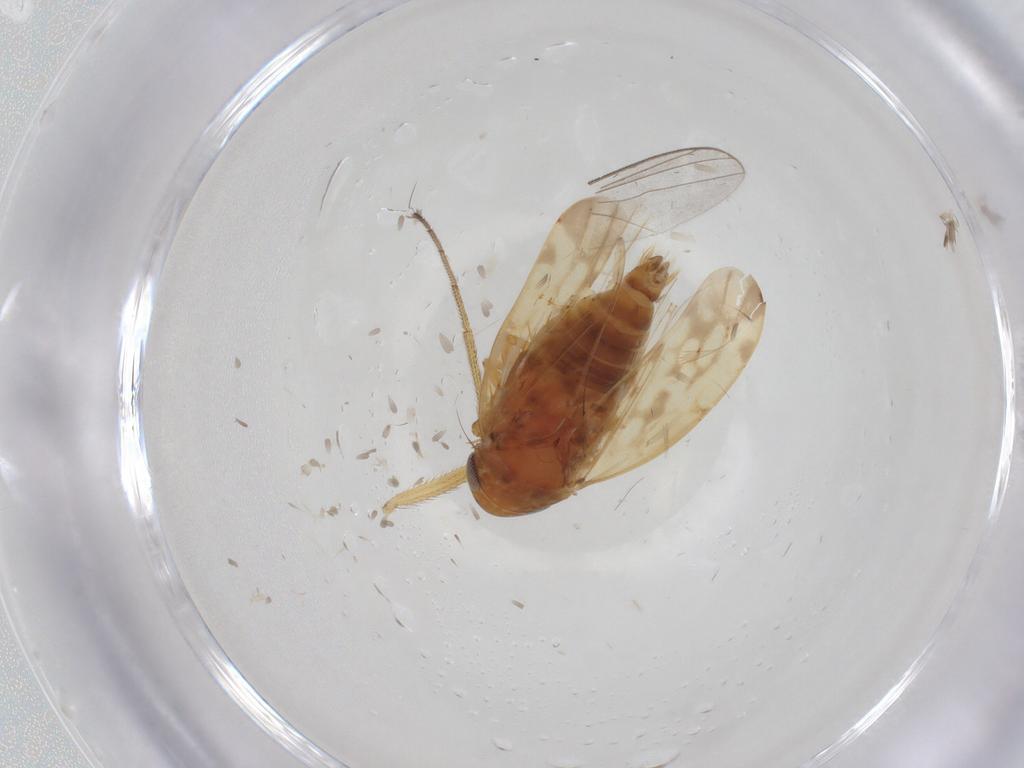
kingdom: Animalia
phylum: Arthropoda
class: Insecta
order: Hemiptera
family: Cicadellidae
